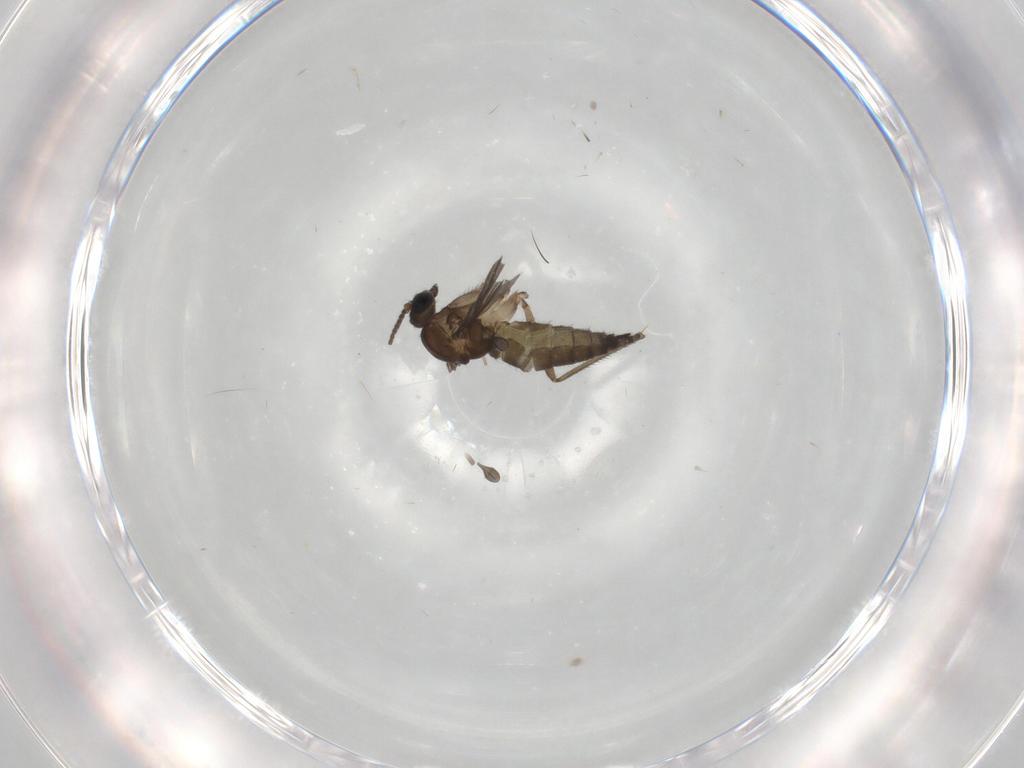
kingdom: Animalia
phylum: Arthropoda
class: Insecta
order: Diptera
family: Sciaridae
